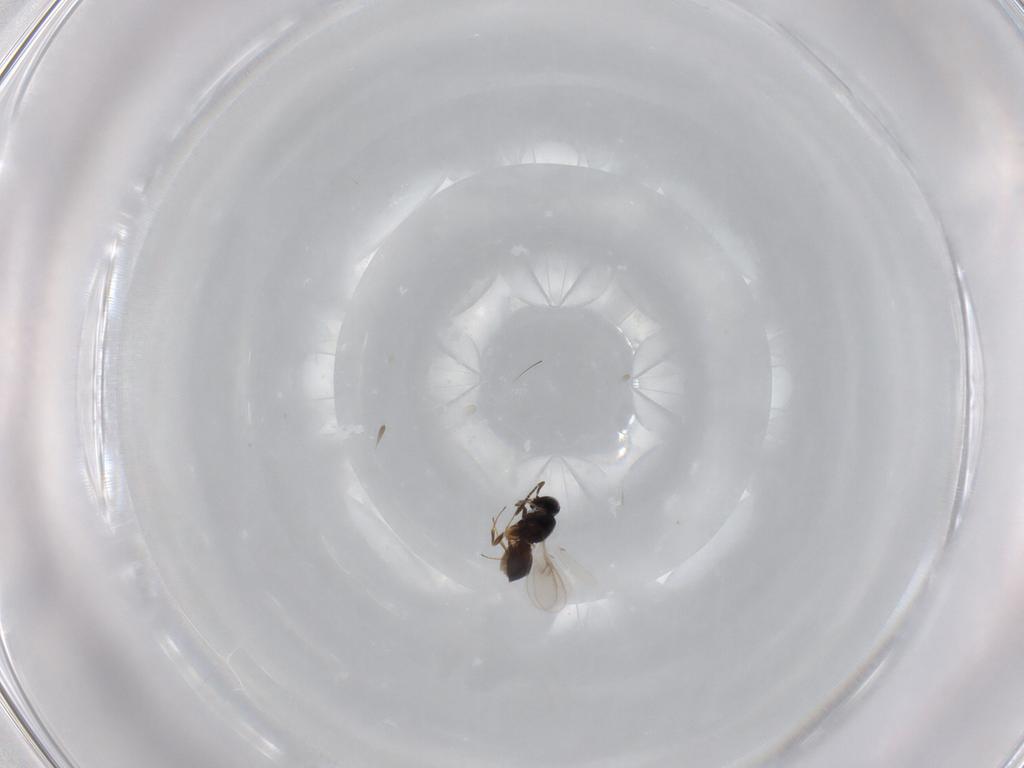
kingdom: Animalia
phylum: Arthropoda
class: Insecta
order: Hymenoptera
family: Scelionidae
